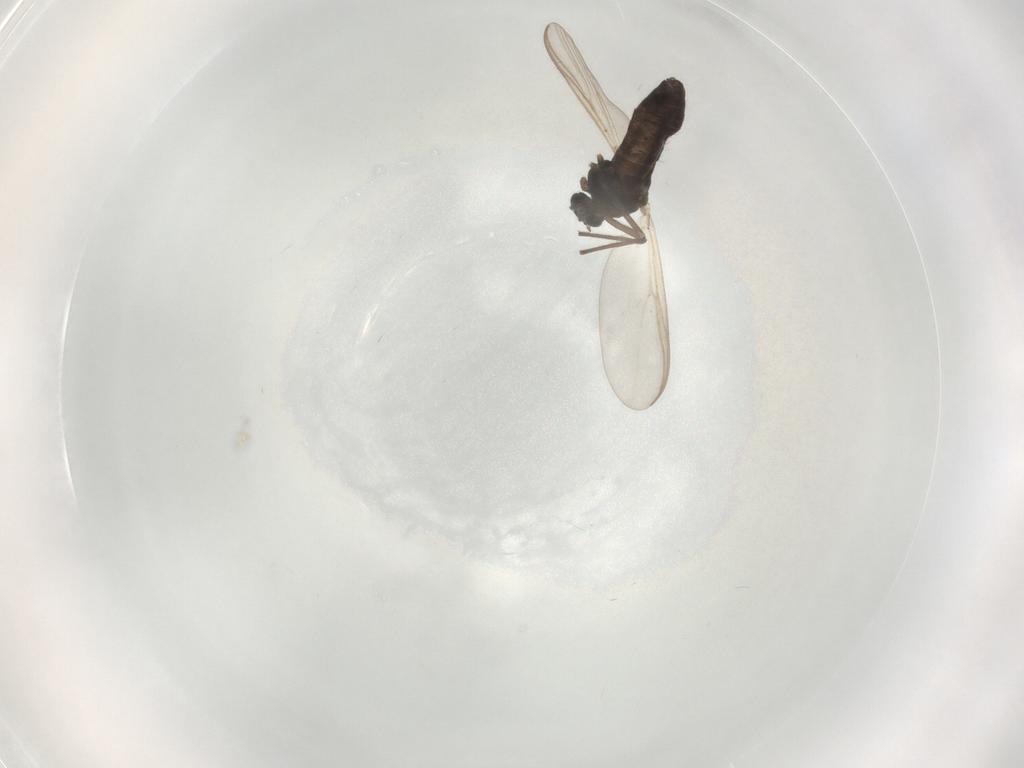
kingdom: Animalia
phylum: Arthropoda
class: Insecta
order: Diptera
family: Chironomidae
